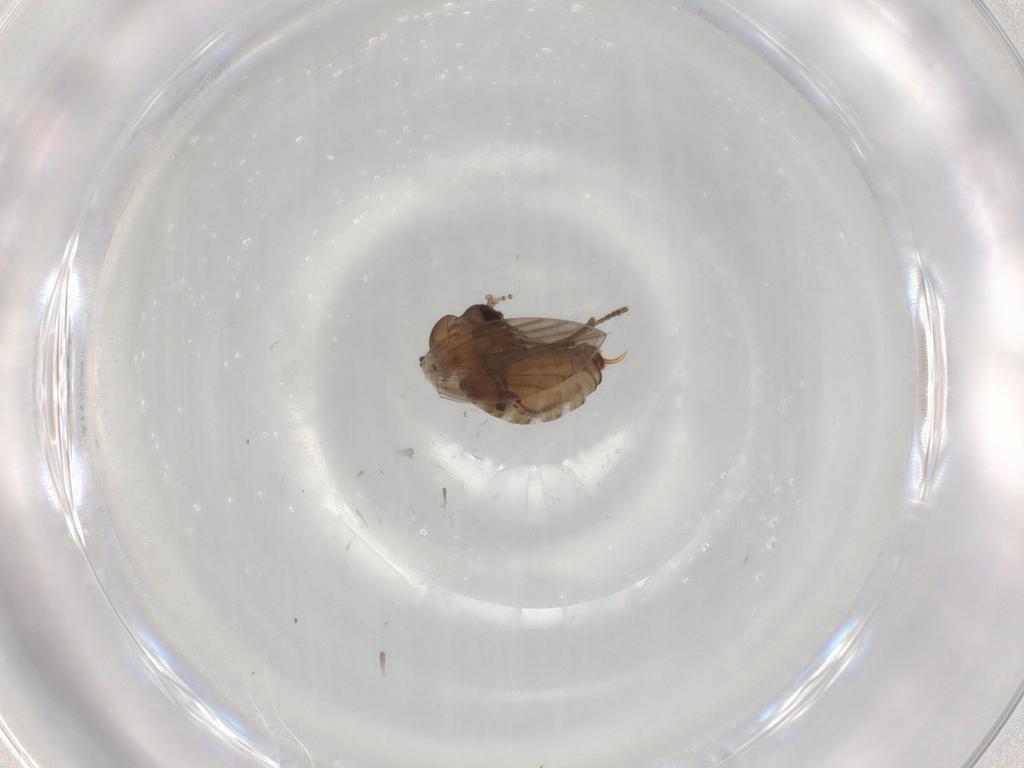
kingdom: Animalia
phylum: Arthropoda
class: Insecta
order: Diptera
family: Psychodidae
